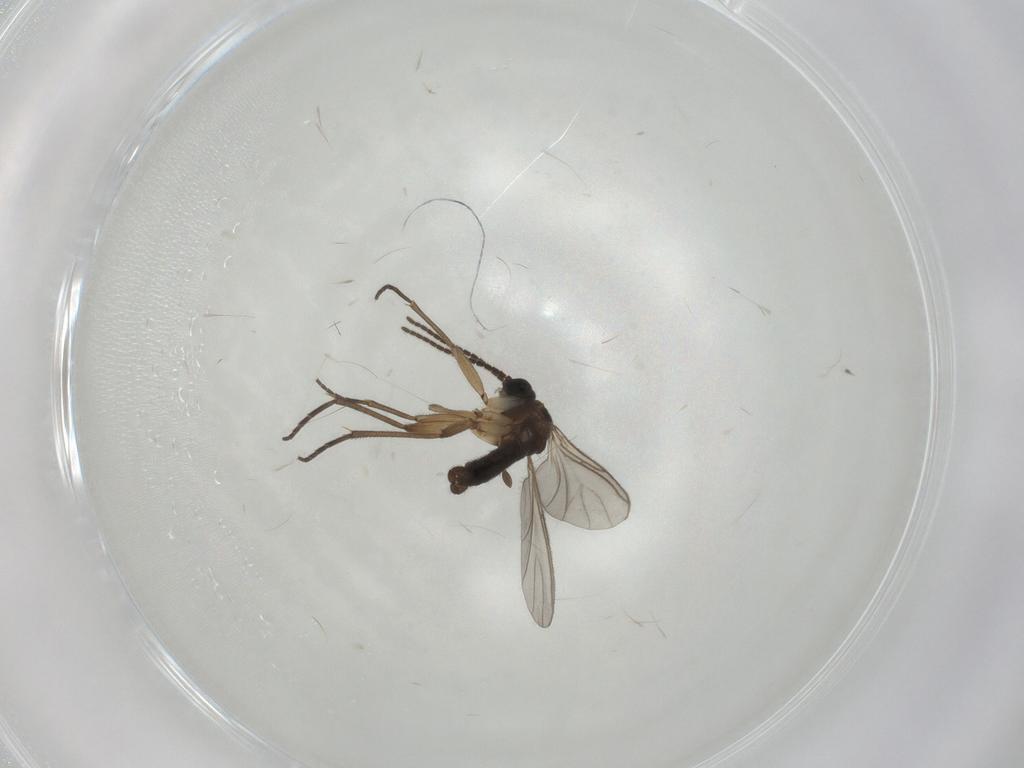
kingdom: Animalia
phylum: Arthropoda
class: Insecta
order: Diptera
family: Sciaridae
